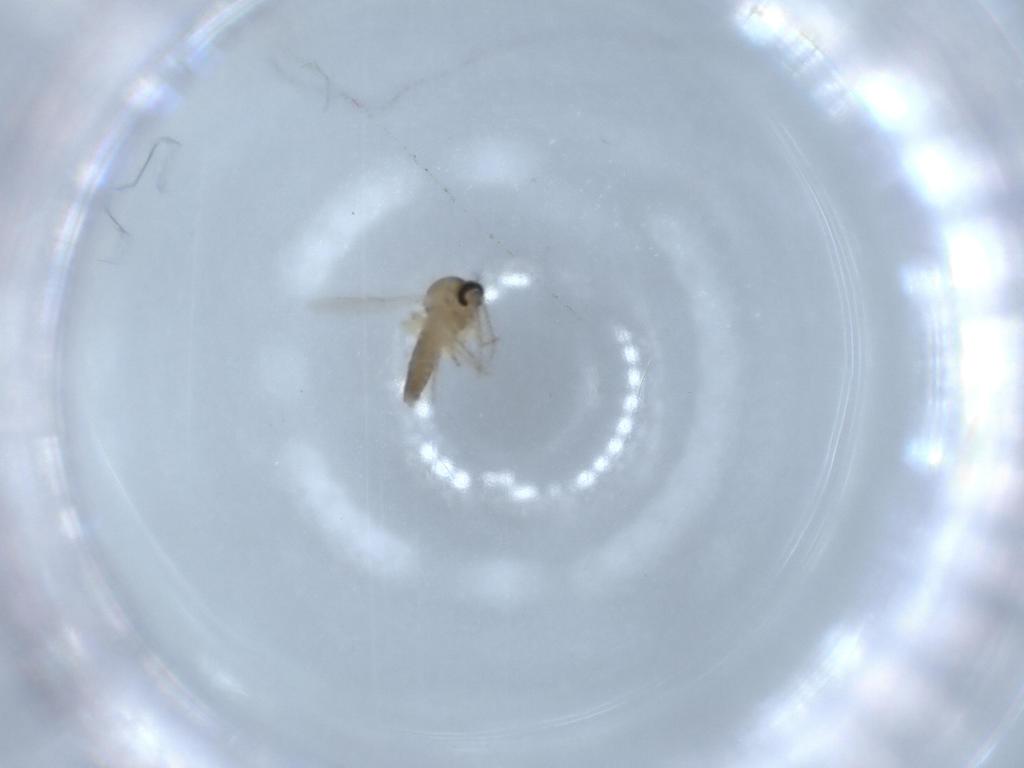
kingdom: Animalia
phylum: Arthropoda
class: Insecta
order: Diptera
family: Ceratopogonidae
